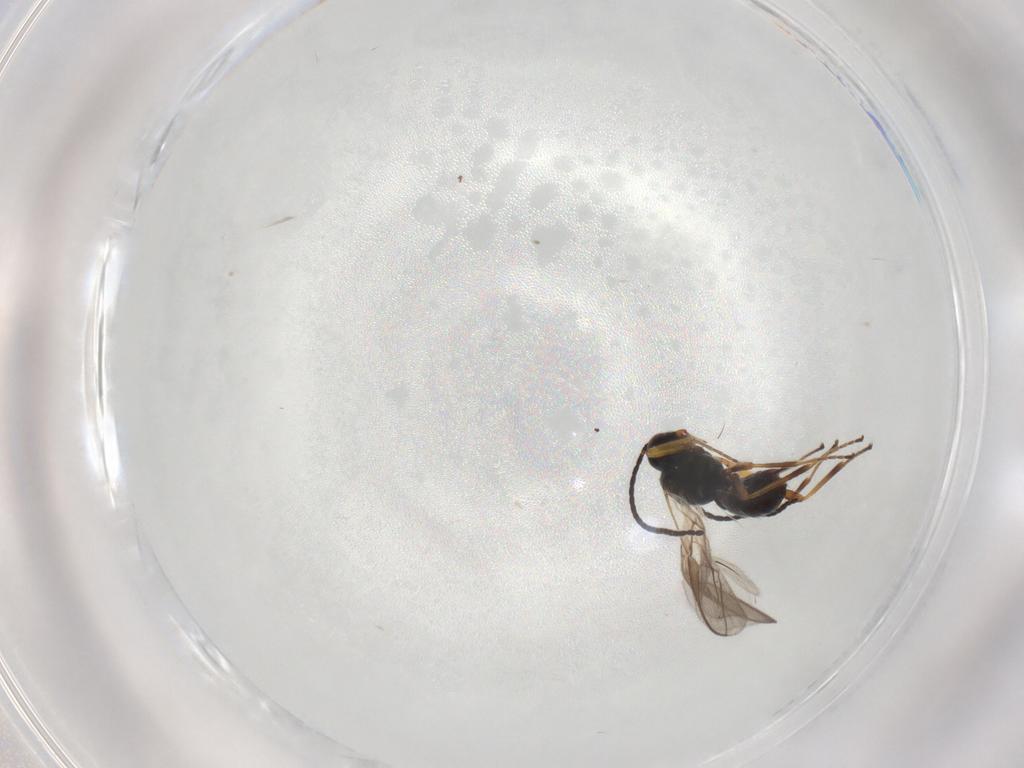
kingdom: Animalia
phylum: Arthropoda
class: Insecta
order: Hymenoptera
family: Braconidae
